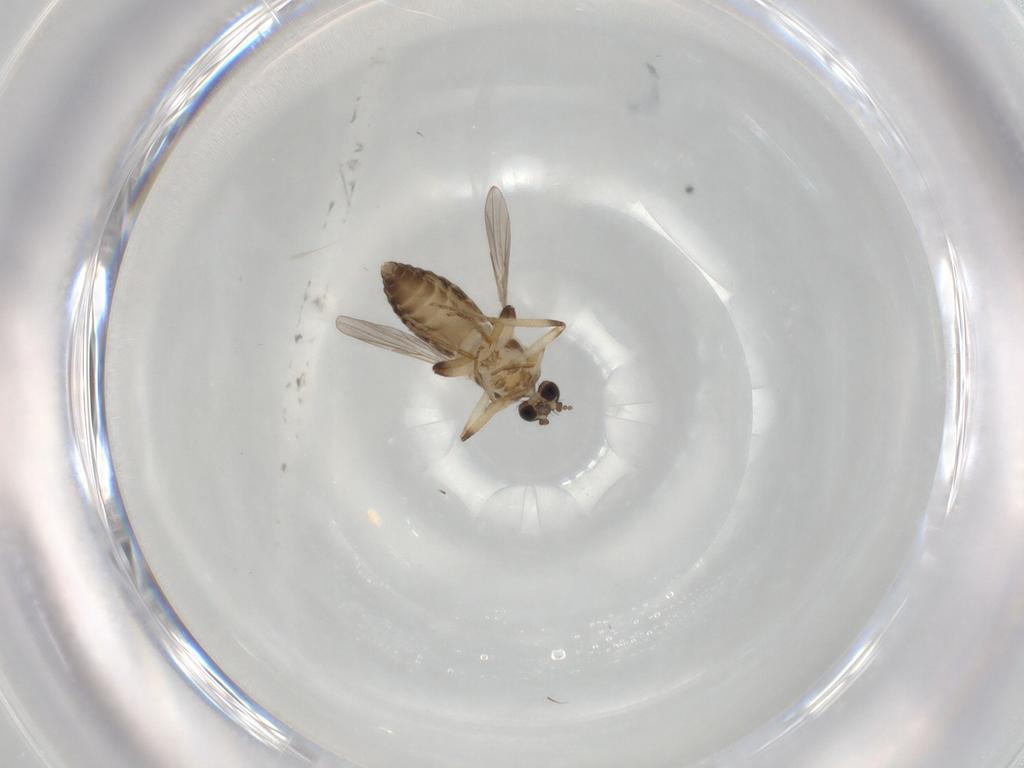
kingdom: Animalia
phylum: Arthropoda
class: Insecta
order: Diptera
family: Ceratopogonidae
